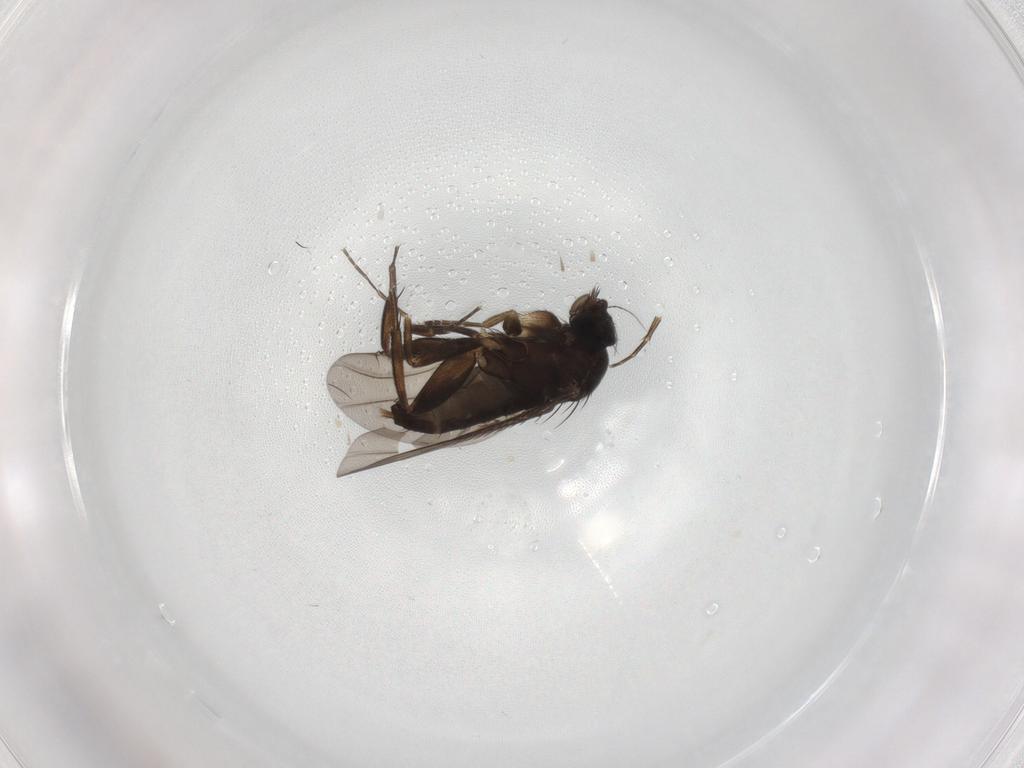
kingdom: Animalia
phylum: Arthropoda
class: Insecta
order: Diptera
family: Phoridae
